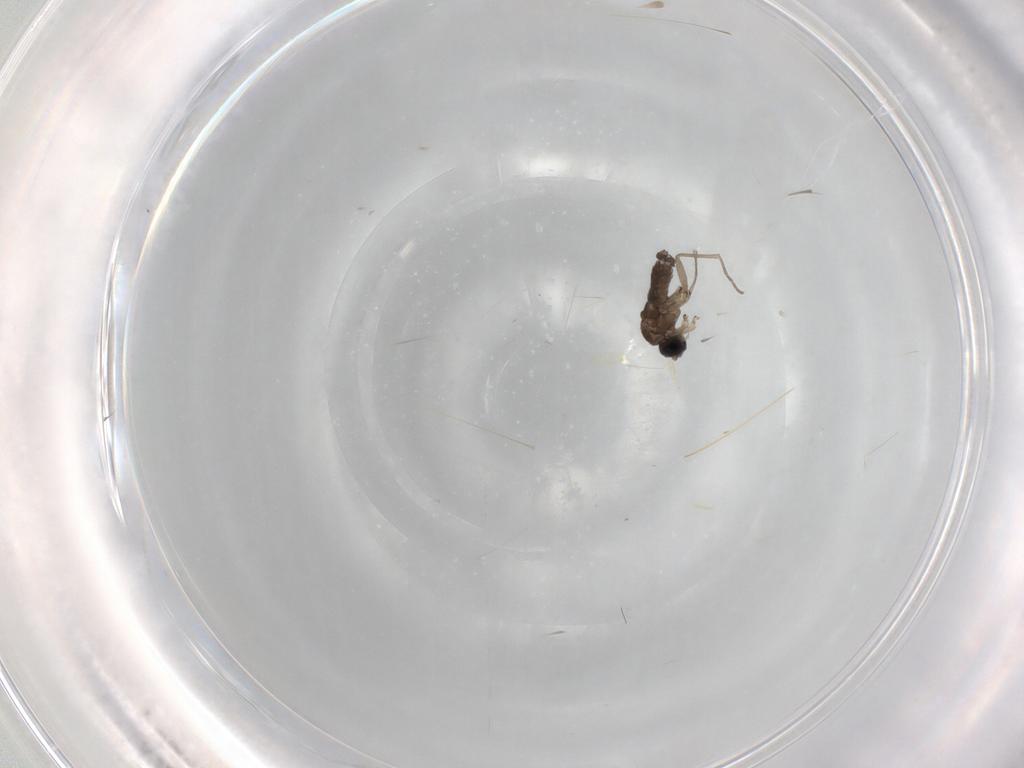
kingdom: Animalia
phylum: Arthropoda
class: Insecta
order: Diptera
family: Sciaridae
